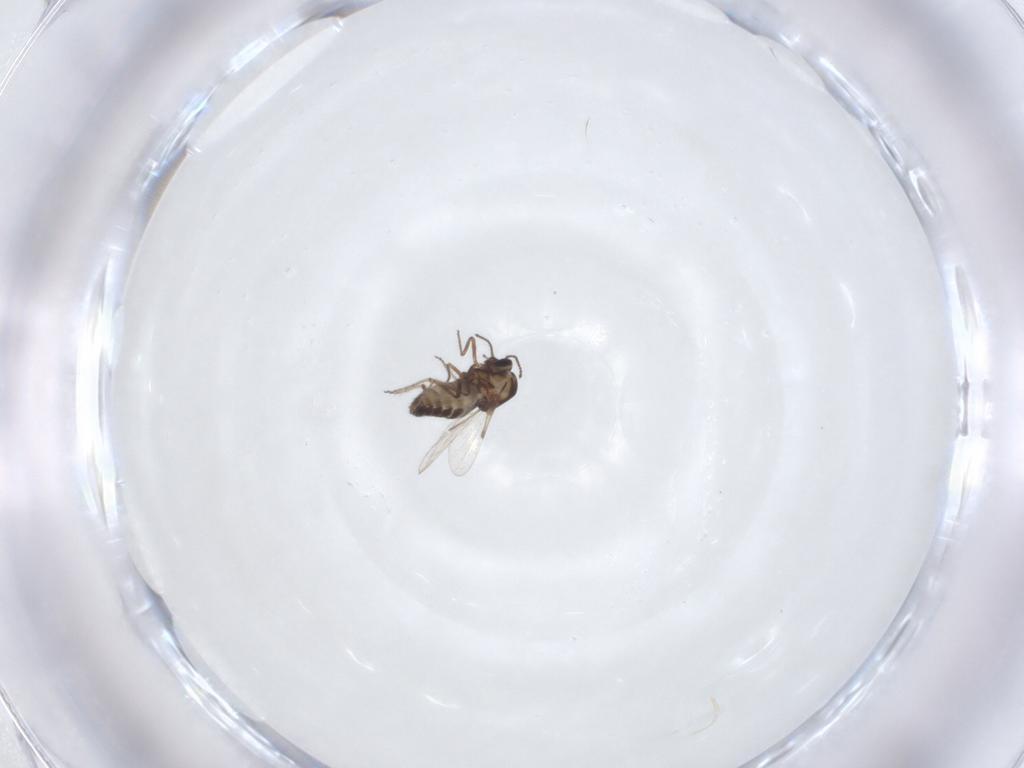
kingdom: Animalia
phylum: Arthropoda
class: Insecta
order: Diptera
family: Ceratopogonidae
